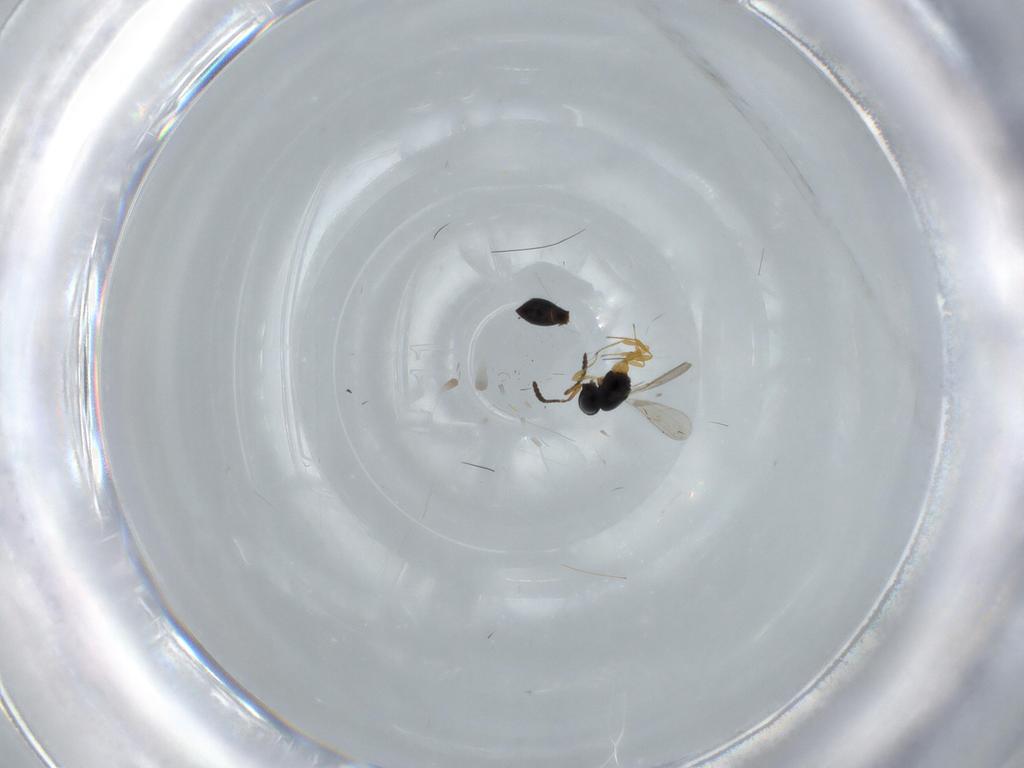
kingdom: Animalia
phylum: Arthropoda
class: Insecta
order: Hymenoptera
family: Scelionidae
